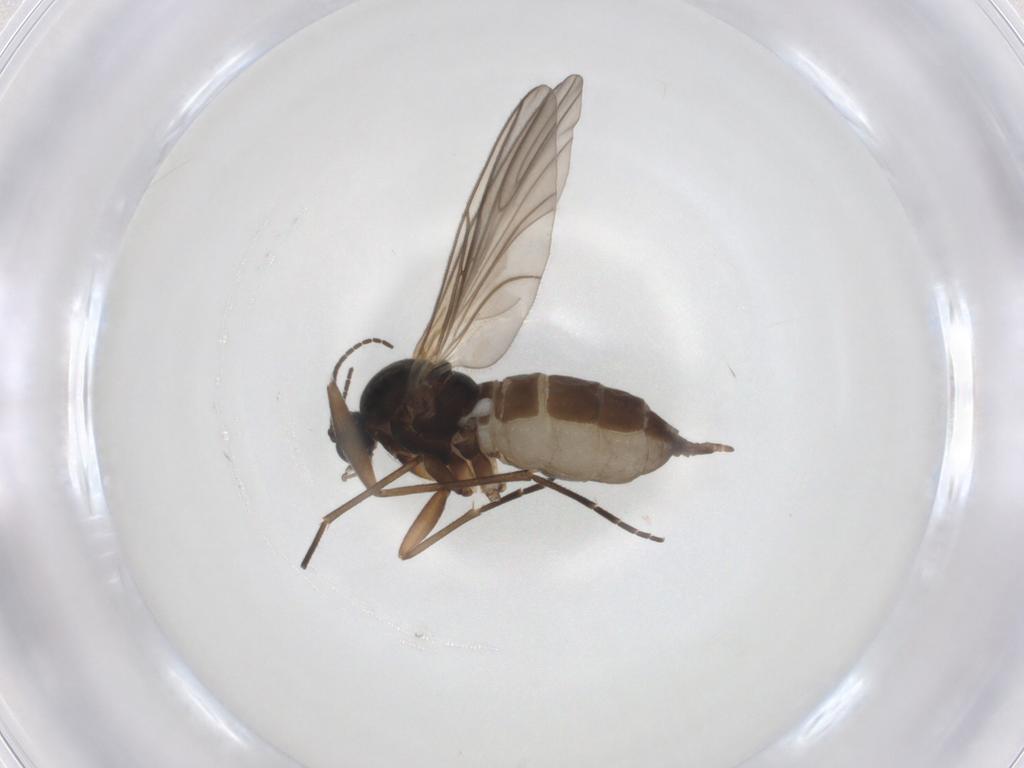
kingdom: Animalia
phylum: Arthropoda
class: Insecta
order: Diptera
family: Sciaridae
